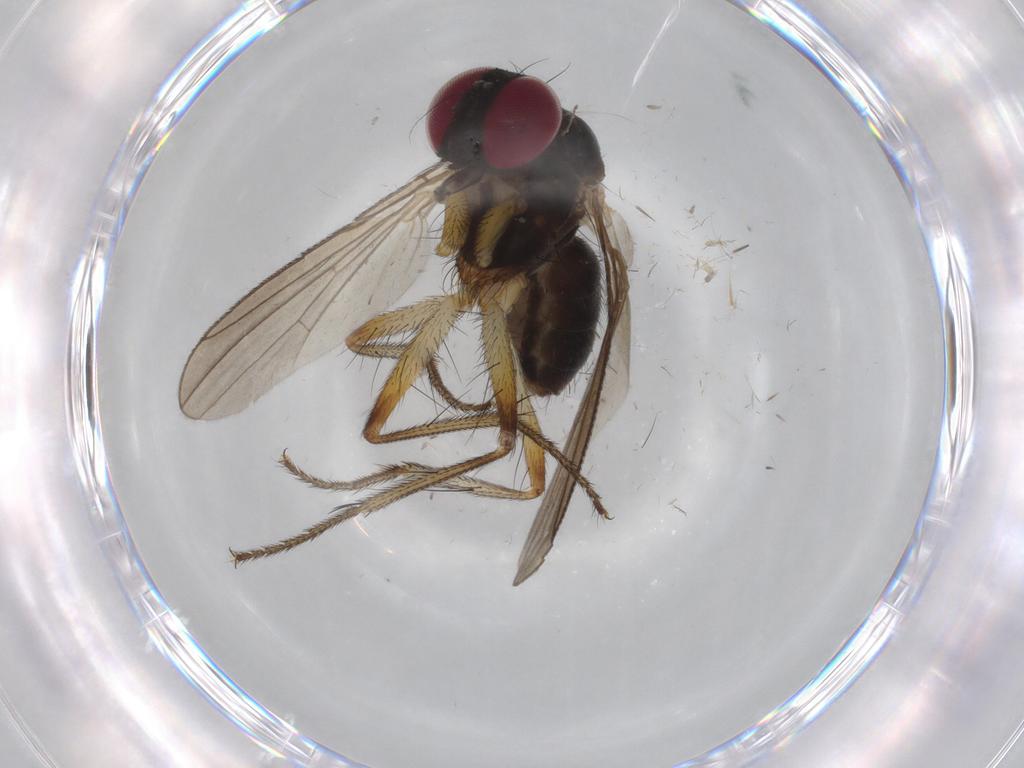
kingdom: Animalia
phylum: Arthropoda
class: Insecta
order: Diptera
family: Anthomyiidae
